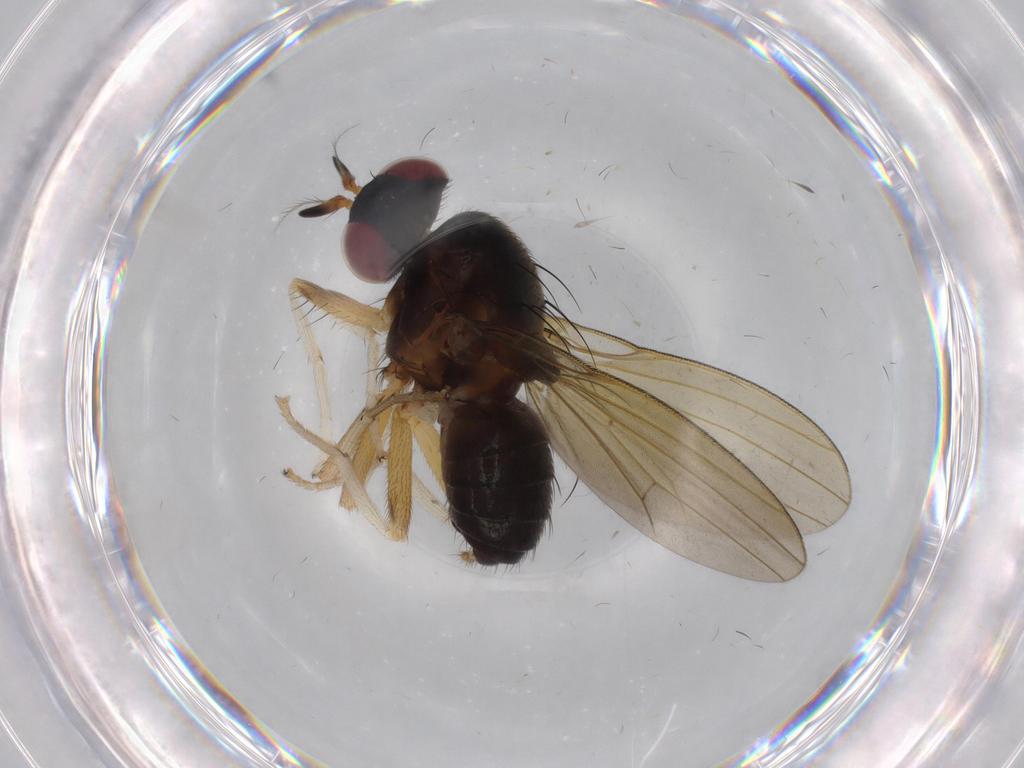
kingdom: Animalia
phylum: Arthropoda
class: Insecta
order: Diptera
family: Phoridae
